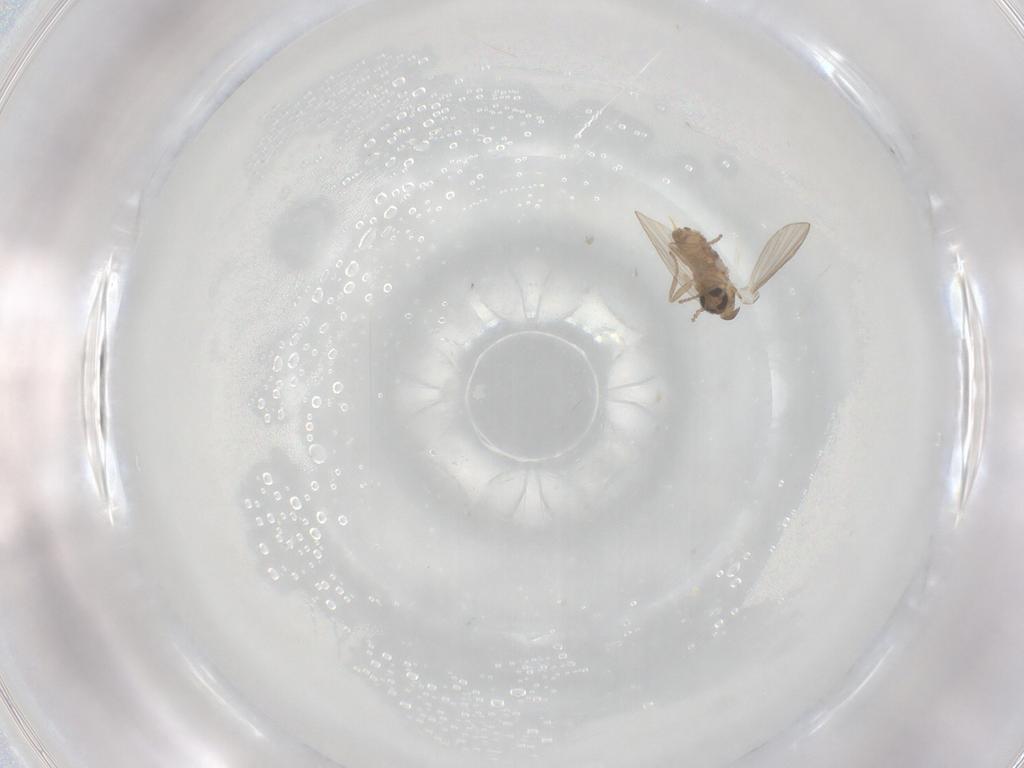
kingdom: Animalia
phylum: Arthropoda
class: Insecta
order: Diptera
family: Psychodidae
